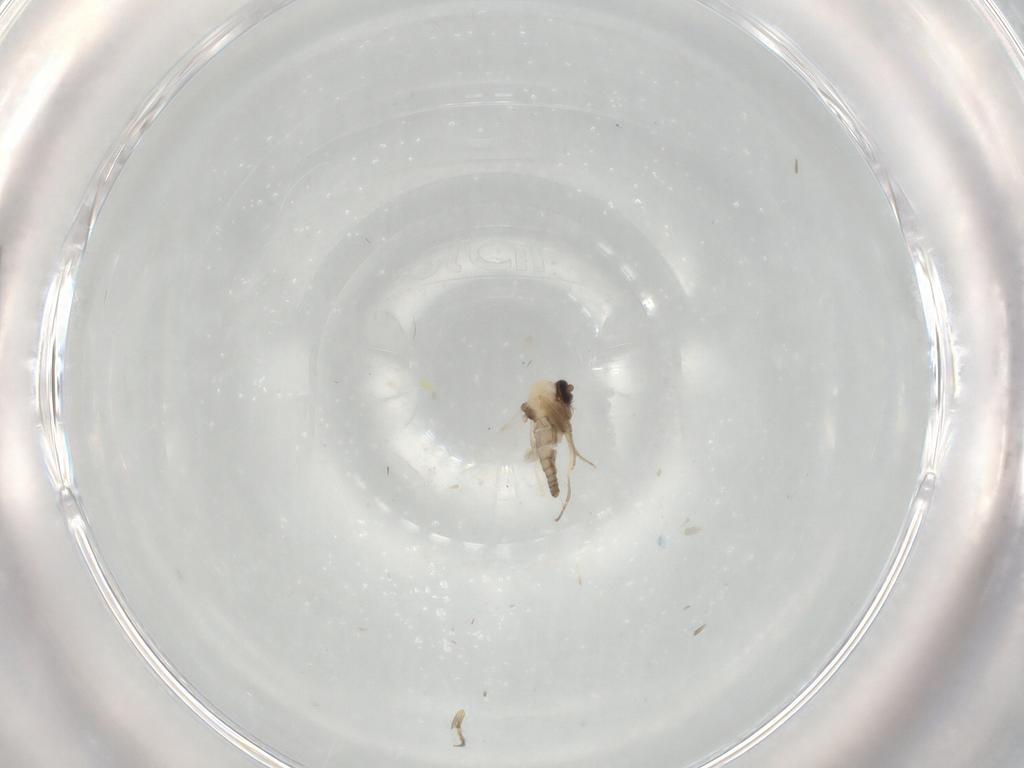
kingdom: Animalia
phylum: Arthropoda
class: Insecta
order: Diptera
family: Ceratopogonidae
